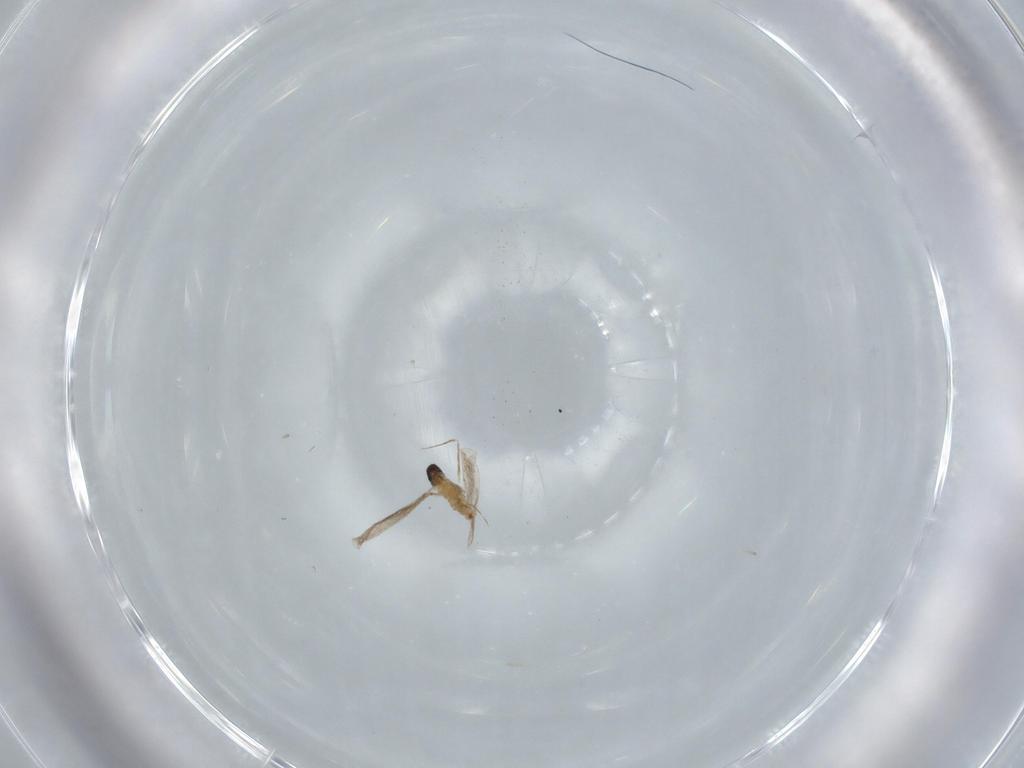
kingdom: Animalia
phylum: Arthropoda
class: Insecta
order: Diptera
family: Cecidomyiidae
